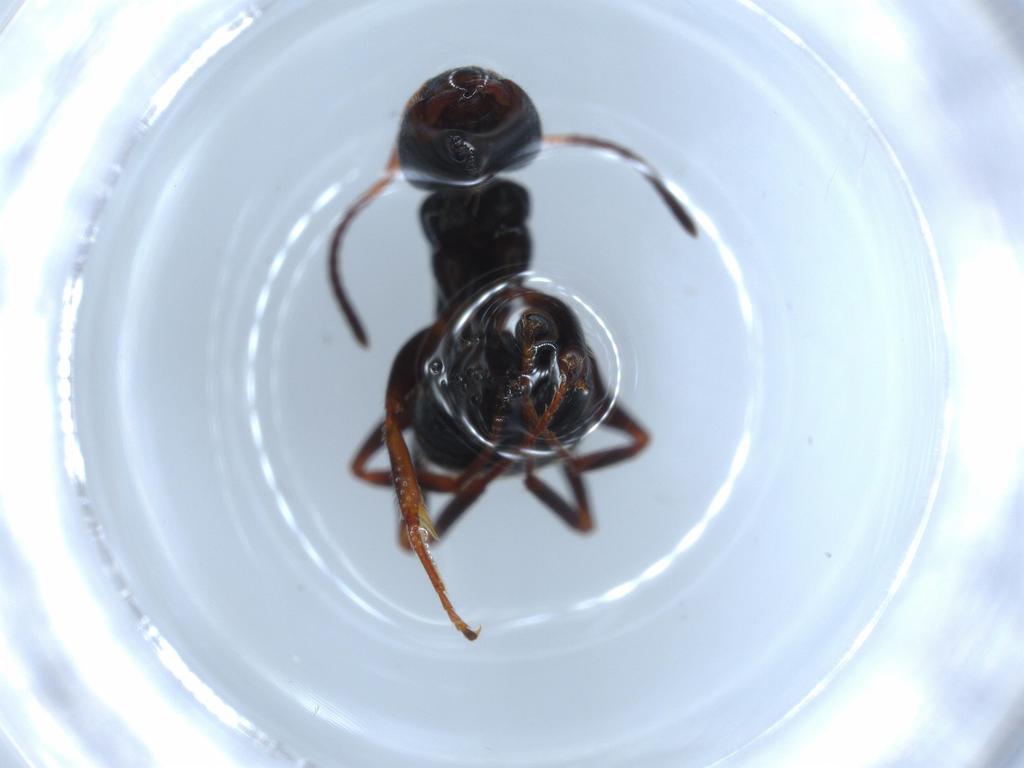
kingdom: Animalia
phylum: Arthropoda
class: Insecta
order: Hymenoptera
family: Formicidae
